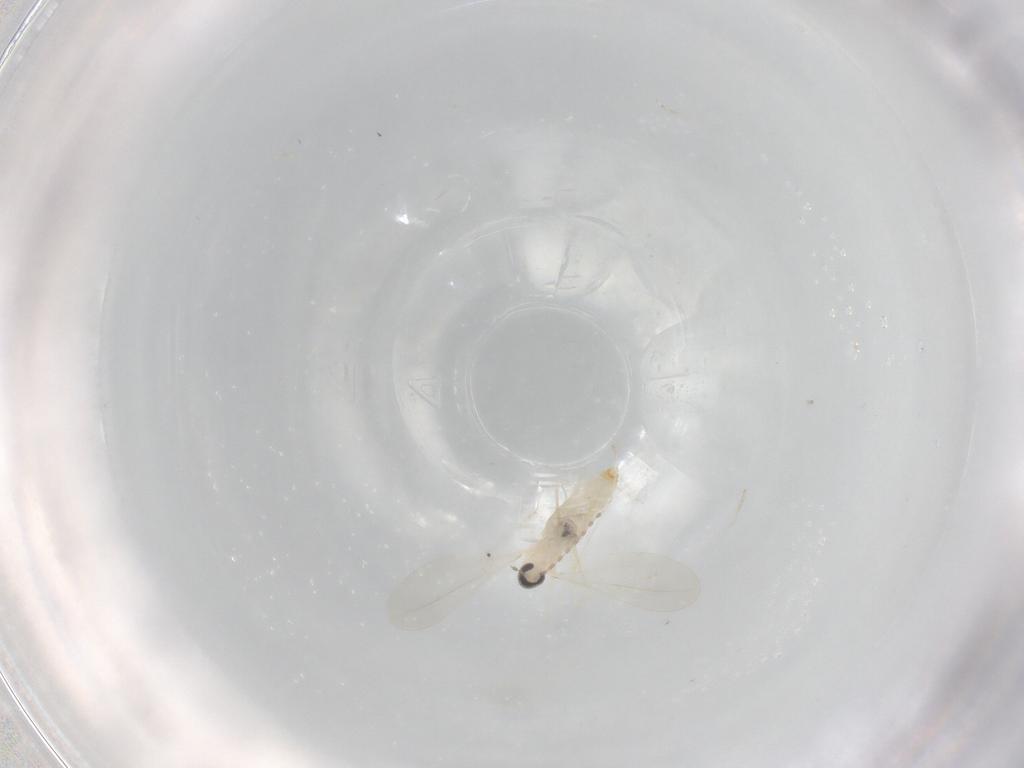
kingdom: Animalia
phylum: Arthropoda
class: Insecta
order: Diptera
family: Cecidomyiidae
